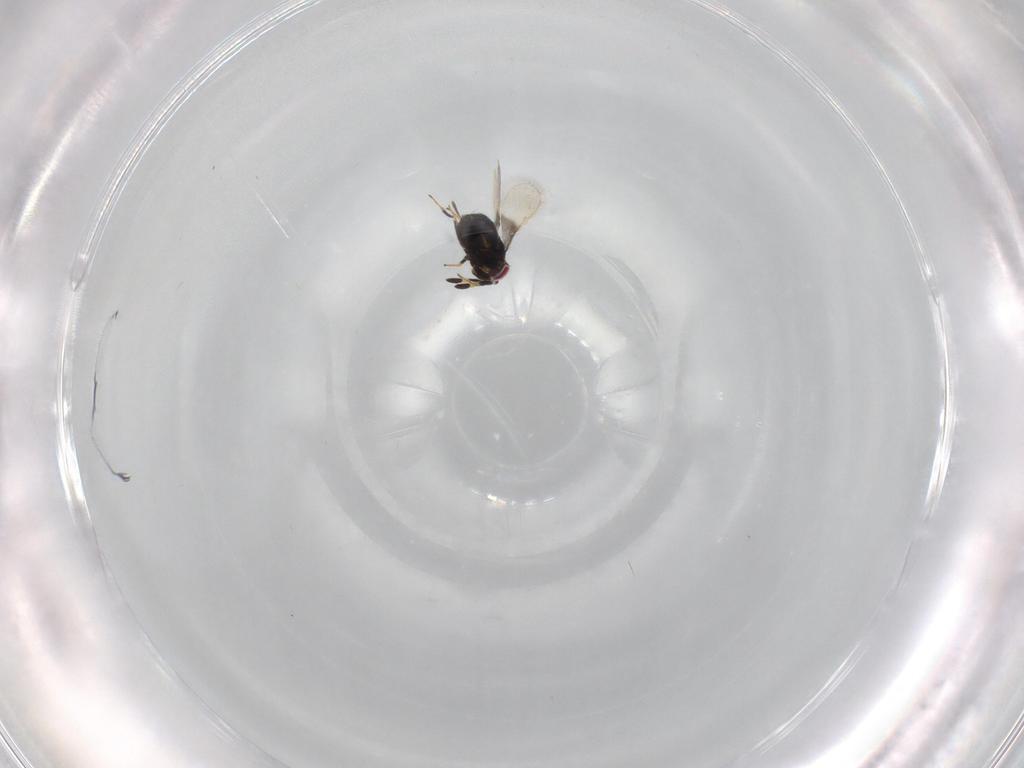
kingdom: Animalia
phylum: Arthropoda
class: Insecta
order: Hymenoptera
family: Azotidae
